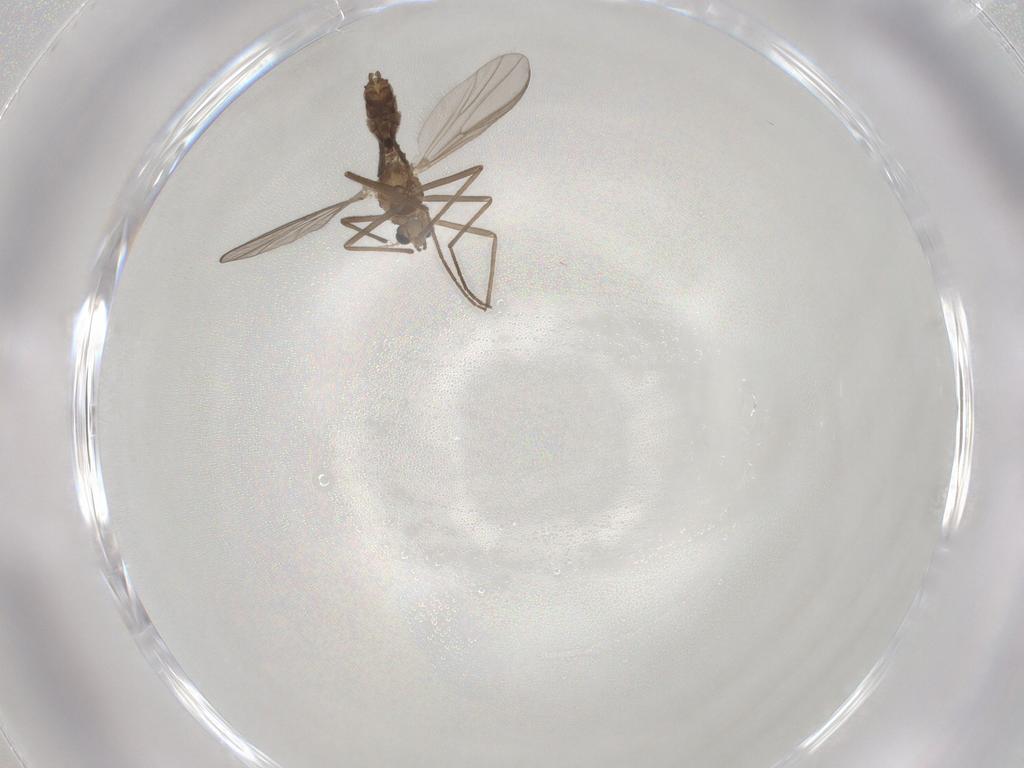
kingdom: Animalia
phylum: Arthropoda
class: Insecta
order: Diptera
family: Chironomidae
